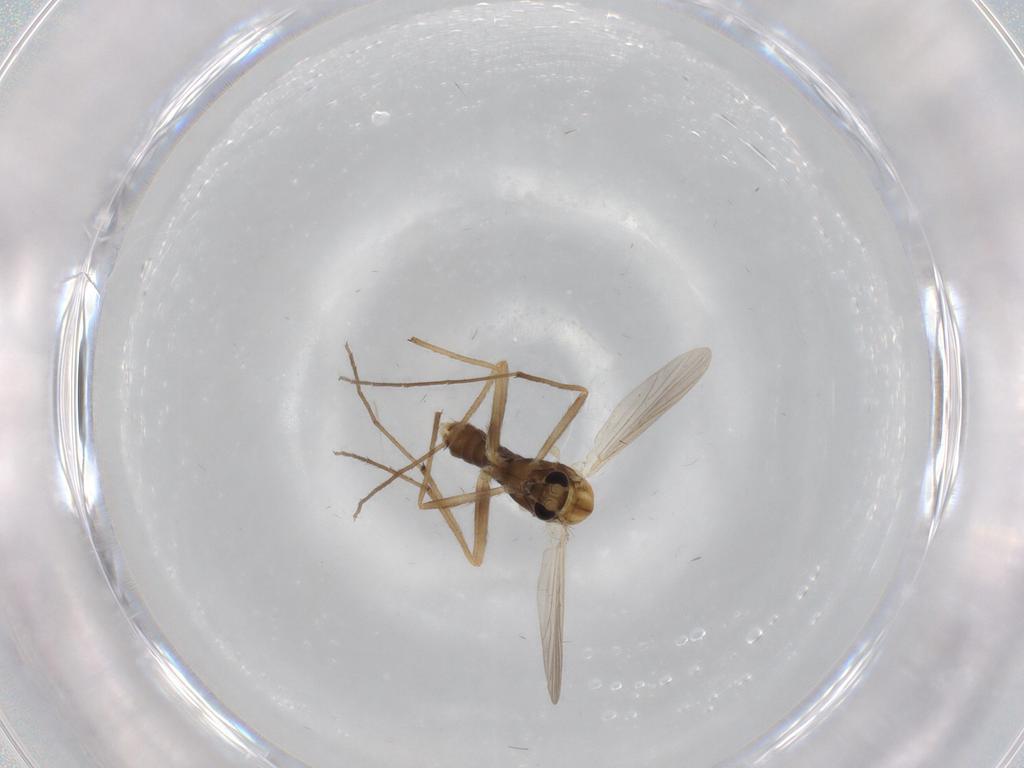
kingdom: Animalia
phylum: Arthropoda
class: Insecta
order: Diptera
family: Chironomidae
